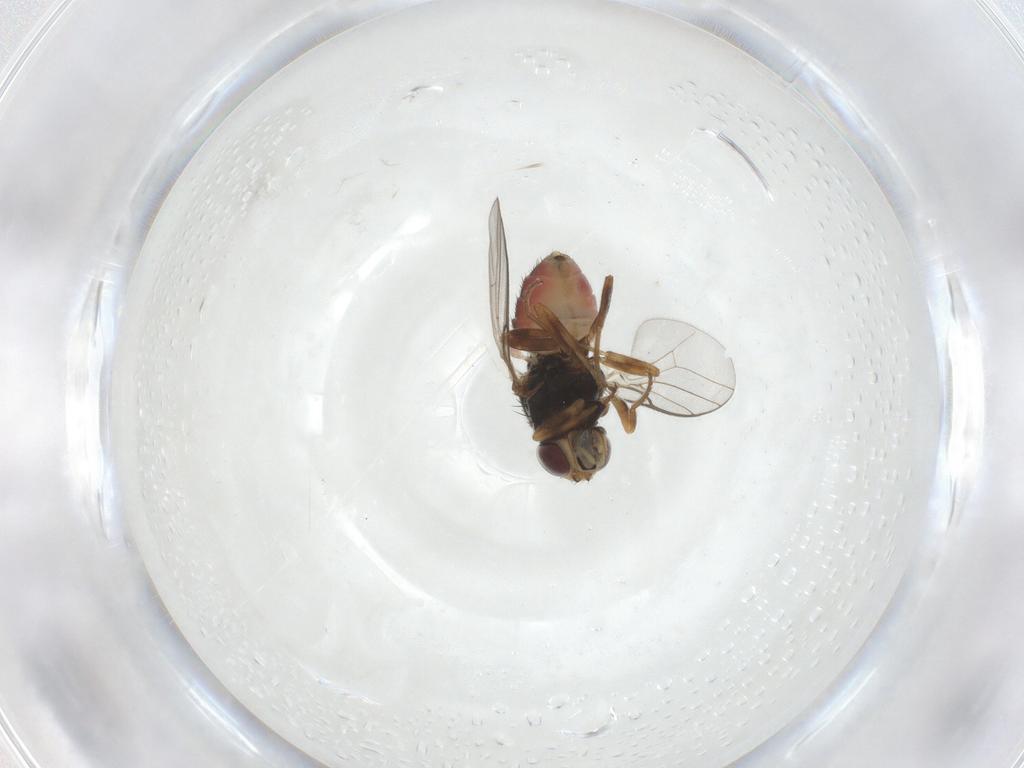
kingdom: Animalia
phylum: Arthropoda
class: Insecta
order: Diptera
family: Chloropidae
